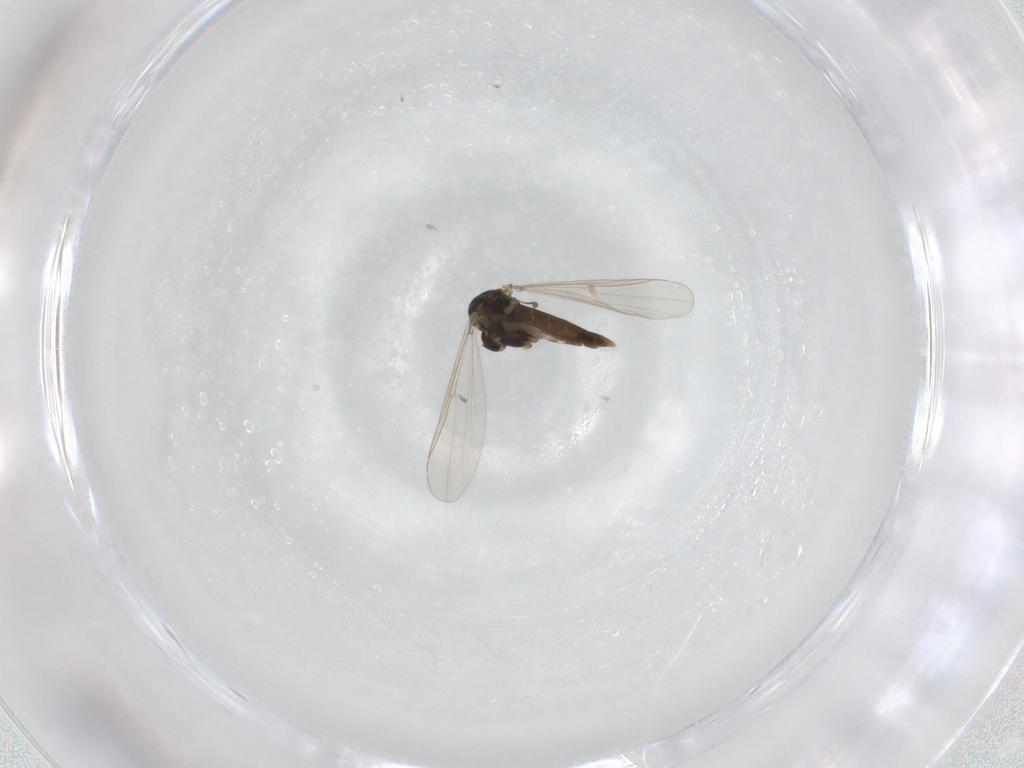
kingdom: Animalia
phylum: Arthropoda
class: Insecta
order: Diptera
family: Chironomidae
